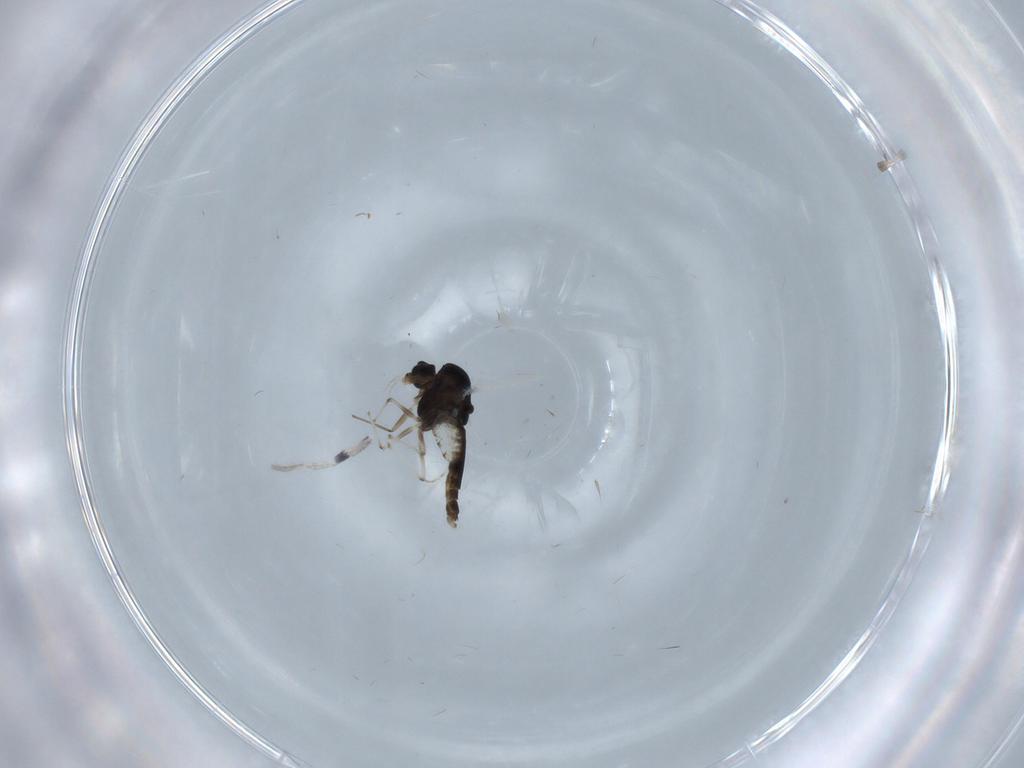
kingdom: Animalia
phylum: Arthropoda
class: Insecta
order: Diptera
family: Chironomidae
